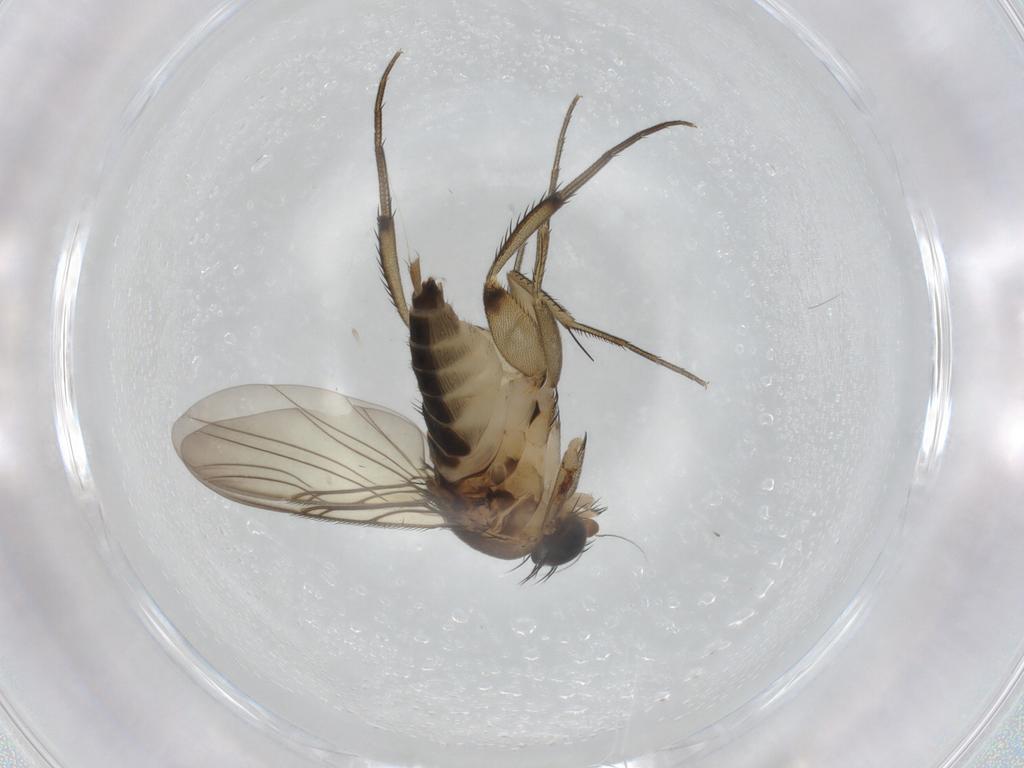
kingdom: Animalia
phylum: Arthropoda
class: Insecta
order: Diptera
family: Phoridae
